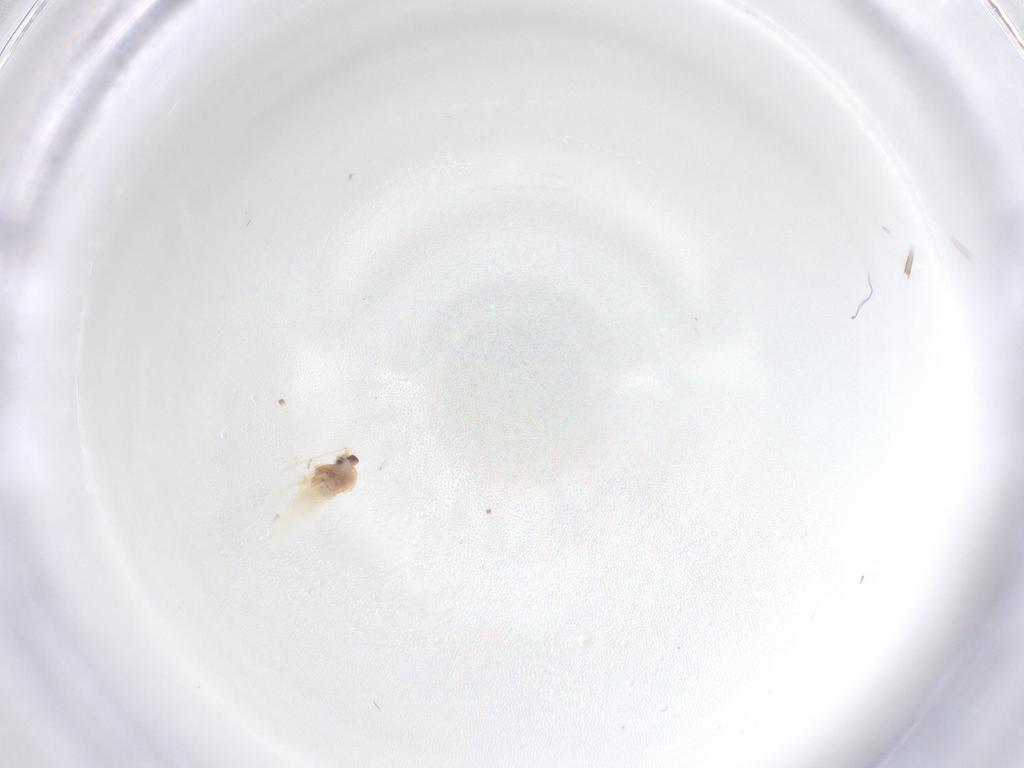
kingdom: Animalia
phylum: Arthropoda
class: Insecta
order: Diptera
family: Cecidomyiidae
